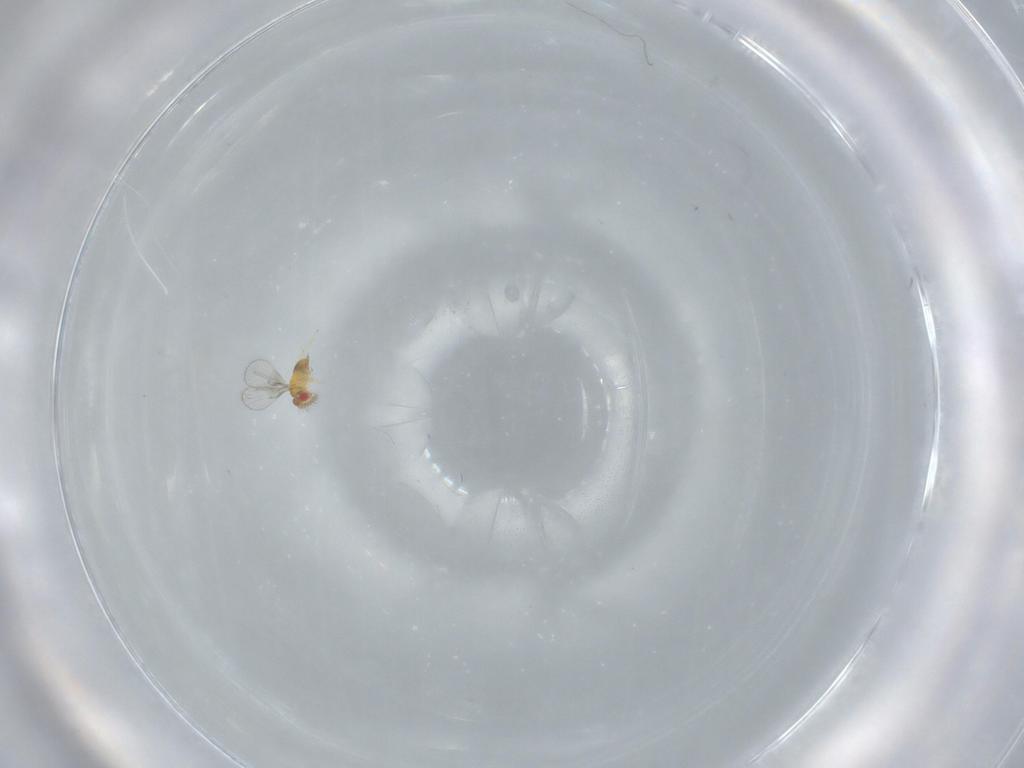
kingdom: Animalia
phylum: Arthropoda
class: Insecta
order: Hymenoptera
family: Trichogrammatidae
